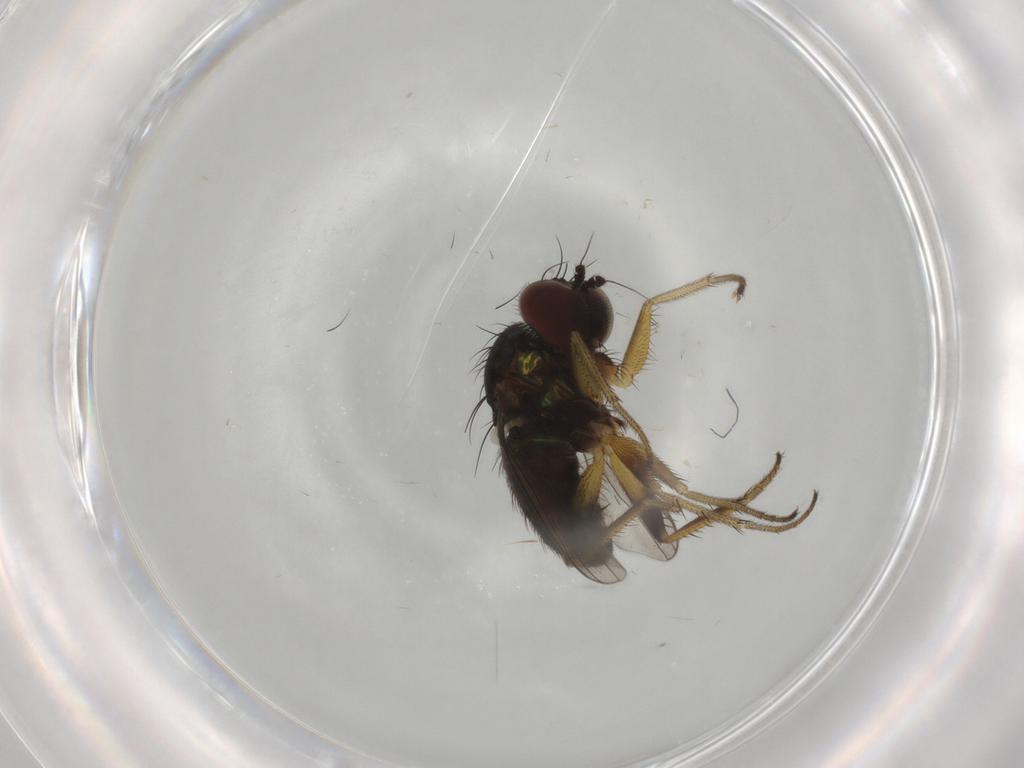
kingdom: Animalia
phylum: Arthropoda
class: Insecta
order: Diptera
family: Dolichopodidae
